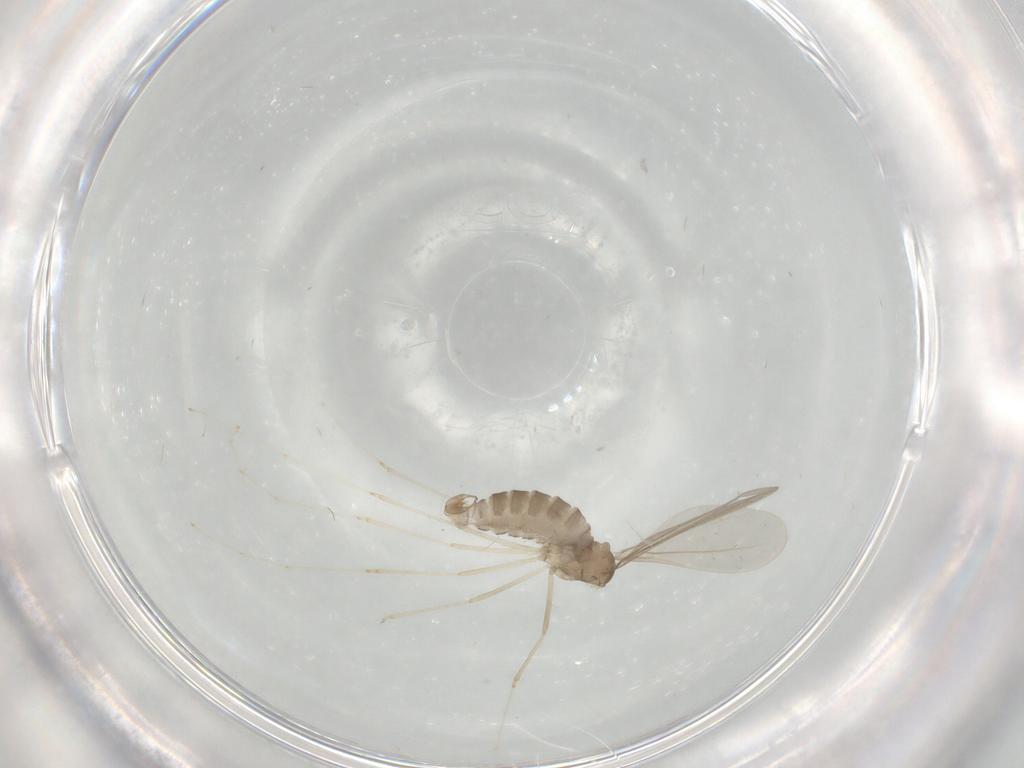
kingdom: Animalia
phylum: Arthropoda
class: Insecta
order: Diptera
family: Cecidomyiidae
